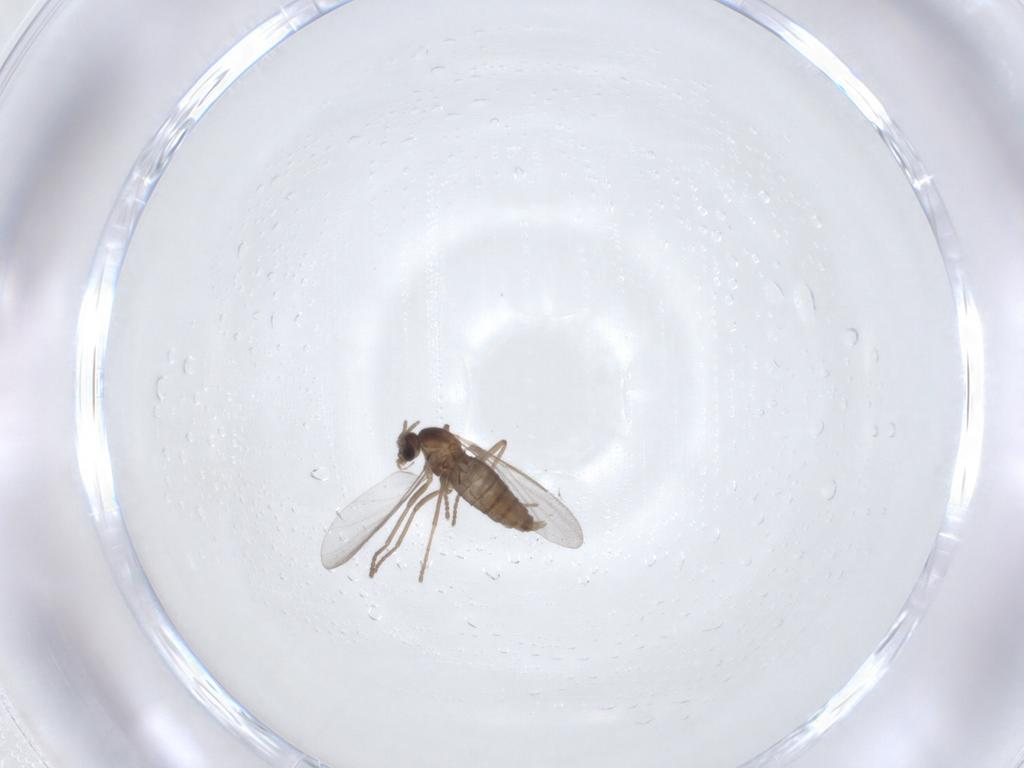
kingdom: Animalia
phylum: Arthropoda
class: Insecta
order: Diptera
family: Cecidomyiidae
